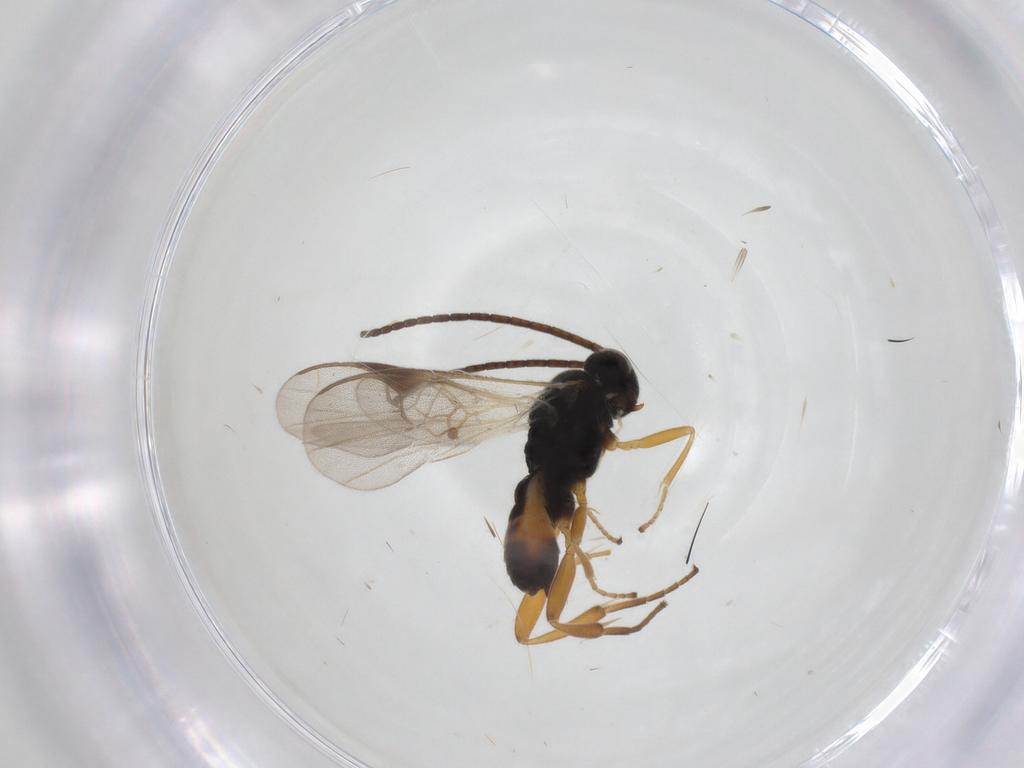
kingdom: Animalia
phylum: Arthropoda
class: Insecta
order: Hymenoptera
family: Braconidae
